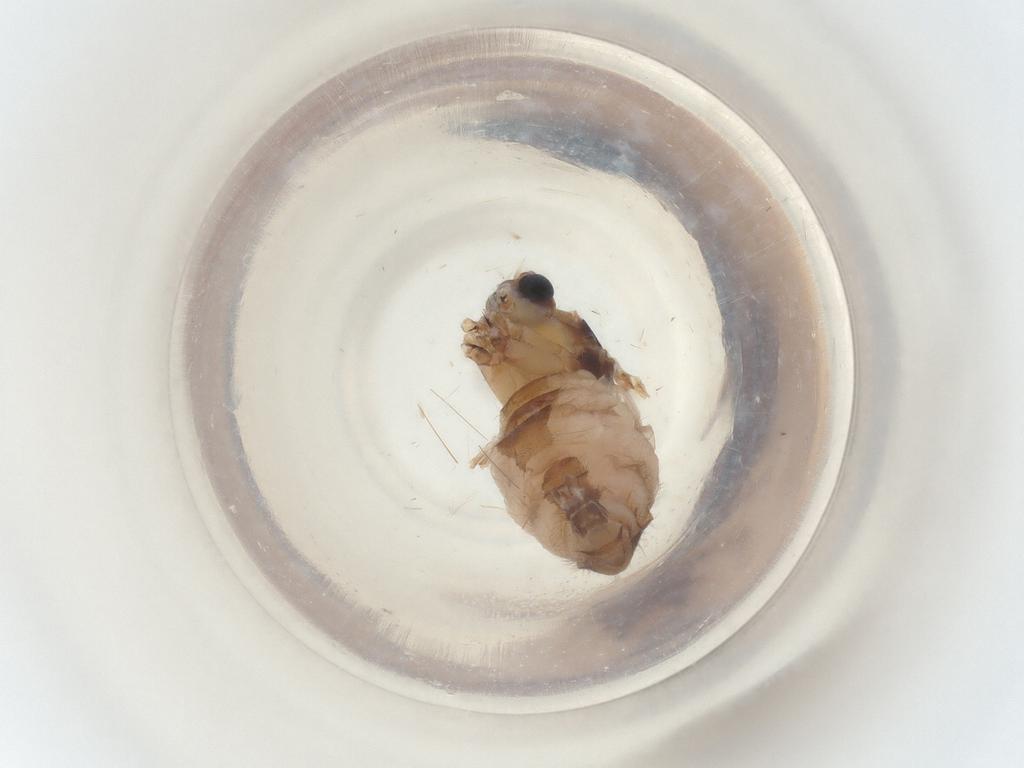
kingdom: Animalia
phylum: Arthropoda
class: Insecta
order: Diptera
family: Sciaridae
